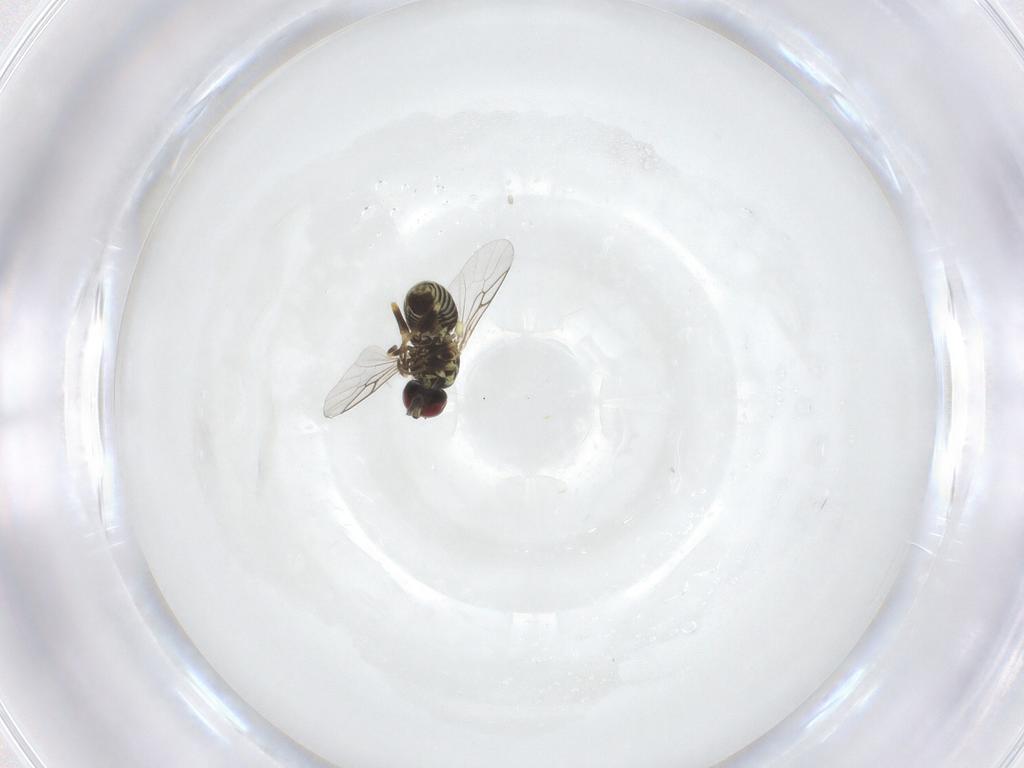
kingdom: Animalia
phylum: Arthropoda
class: Insecta
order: Diptera
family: Mythicomyiidae
